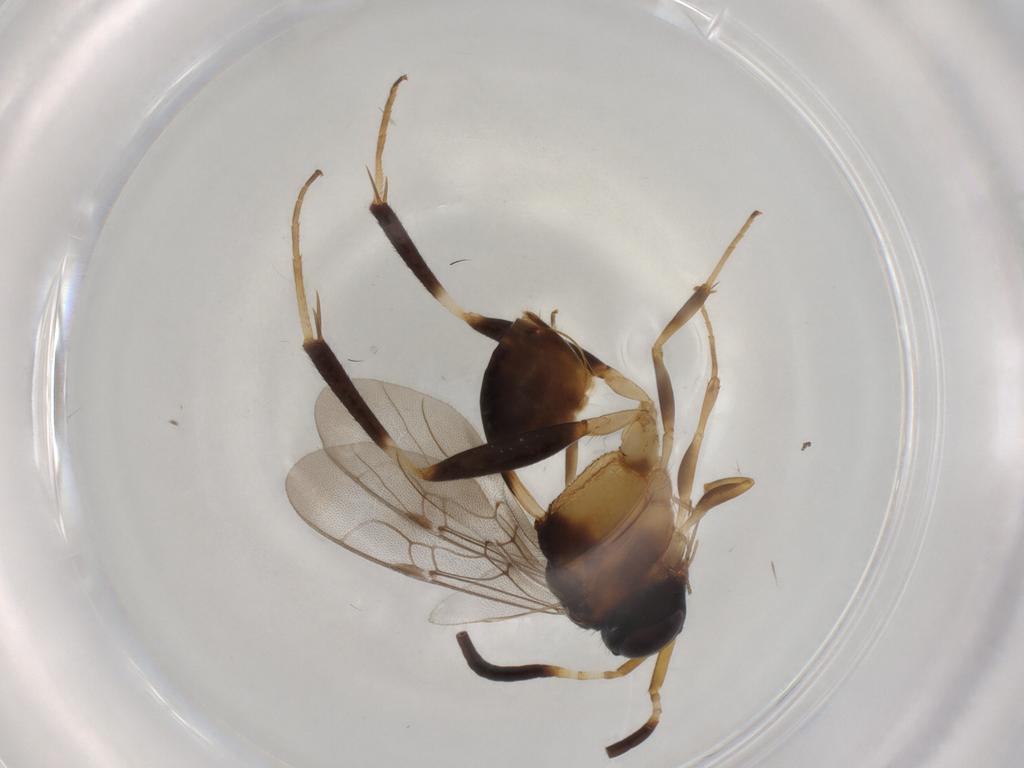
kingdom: Animalia
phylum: Arthropoda
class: Insecta
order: Hymenoptera
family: Evaniidae
